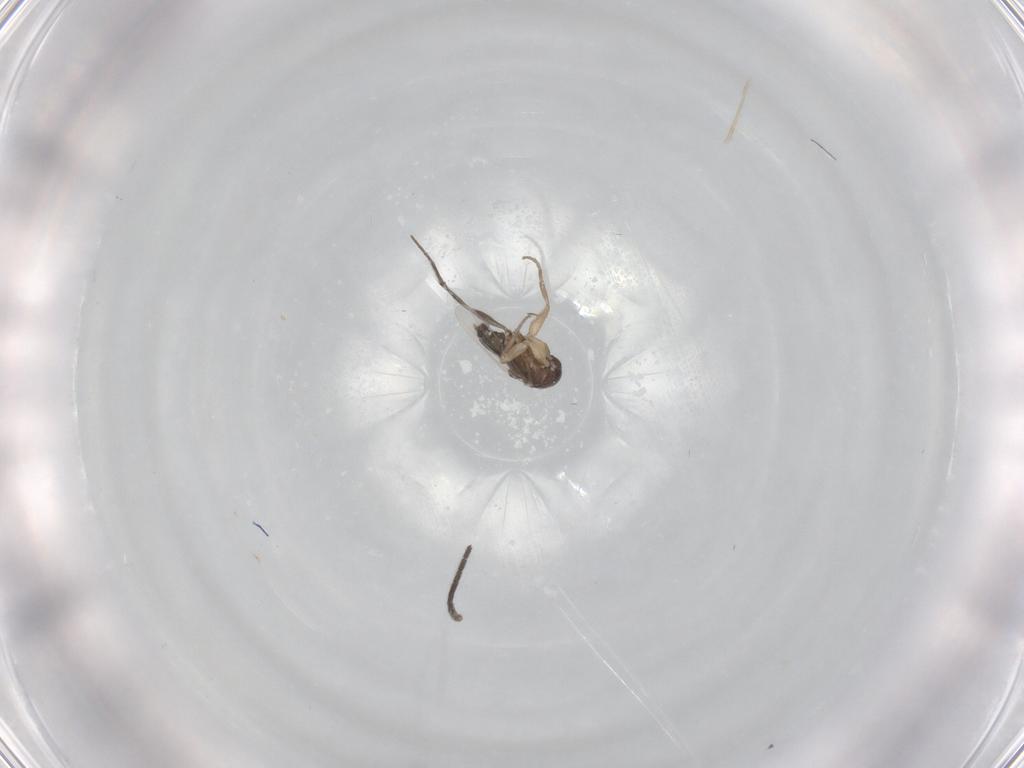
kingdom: Animalia
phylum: Arthropoda
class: Insecta
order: Diptera
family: Sciaridae
